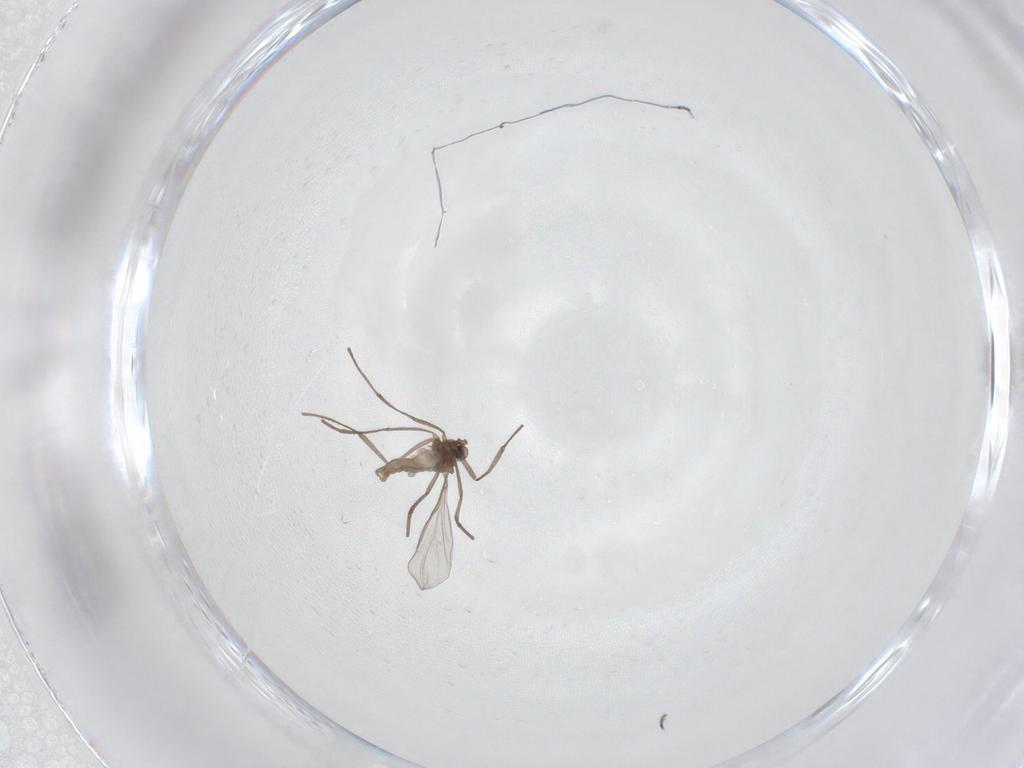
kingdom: Animalia
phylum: Arthropoda
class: Insecta
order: Diptera
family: Cecidomyiidae
